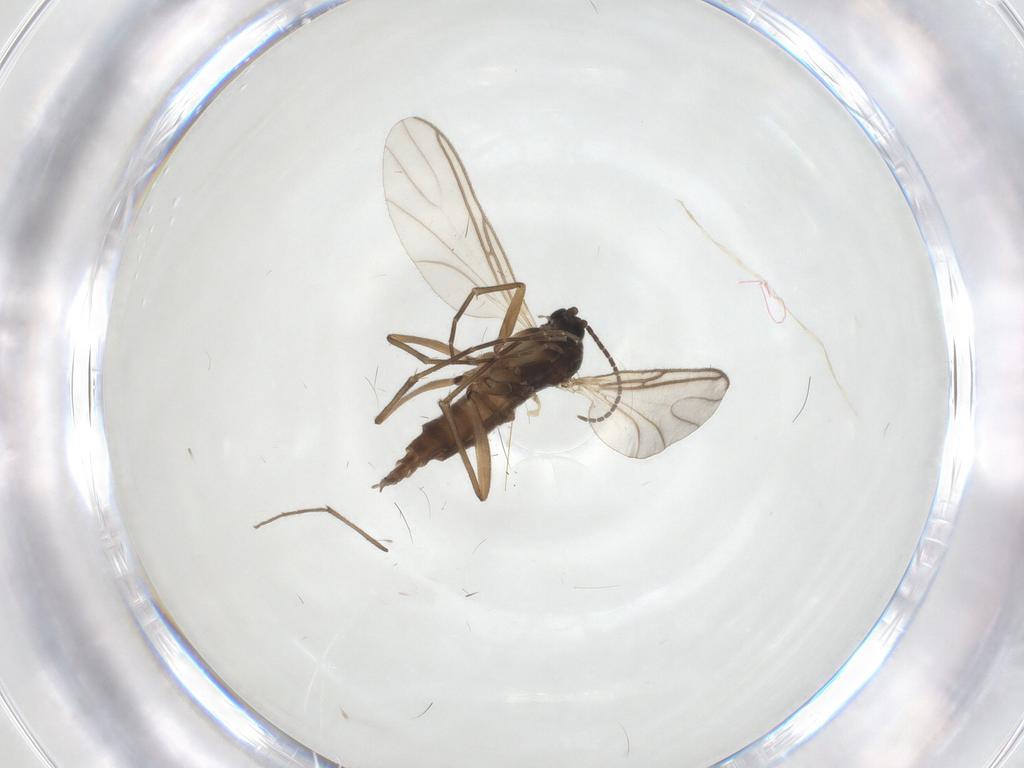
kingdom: Animalia
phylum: Arthropoda
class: Insecta
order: Diptera
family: Sciaridae
